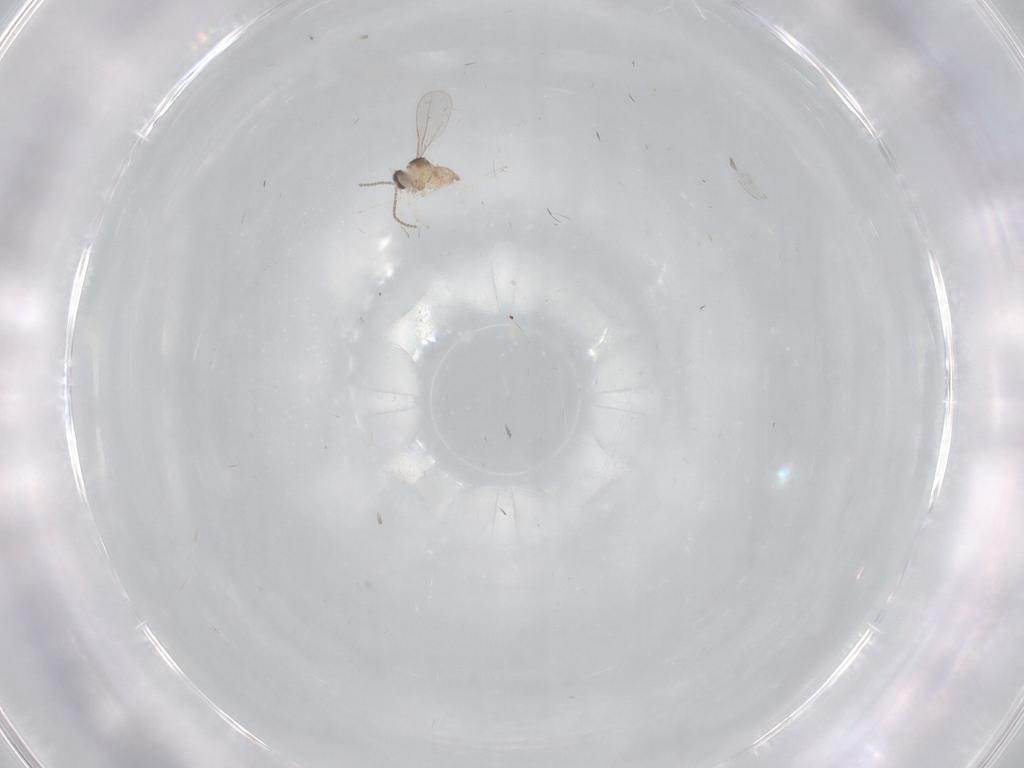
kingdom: Animalia
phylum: Arthropoda
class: Insecta
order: Diptera
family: Cecidomyiidae
